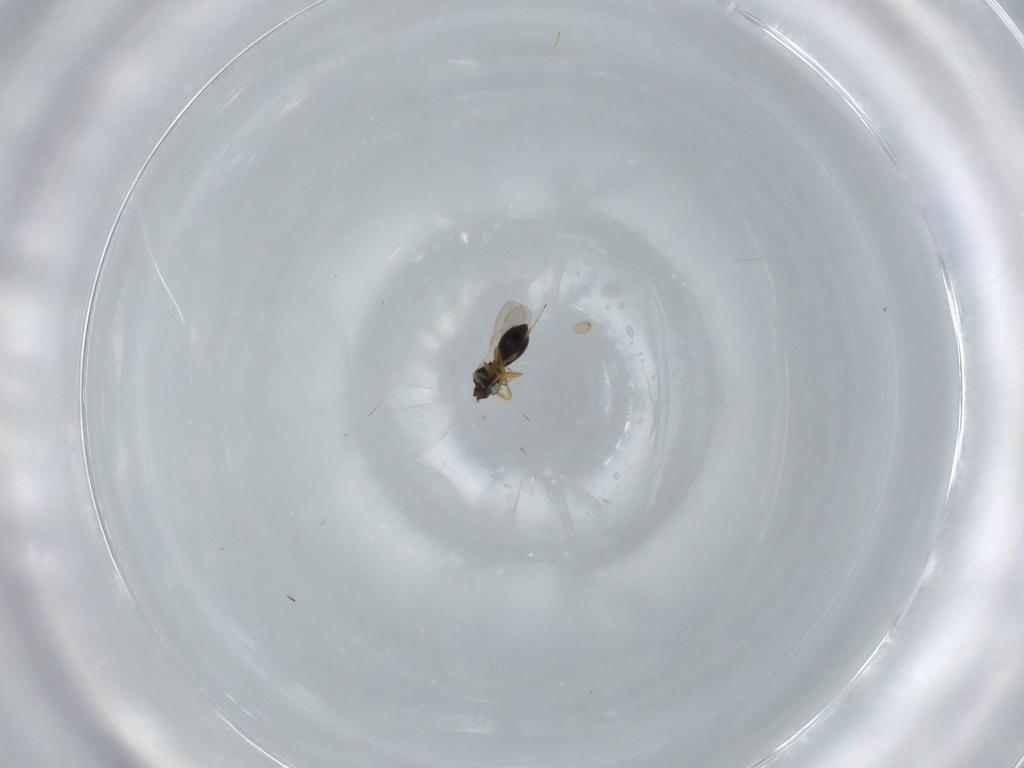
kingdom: Animalia
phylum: Arthropoda
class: Insecta
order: Hymenoptera
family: Scelionidae
